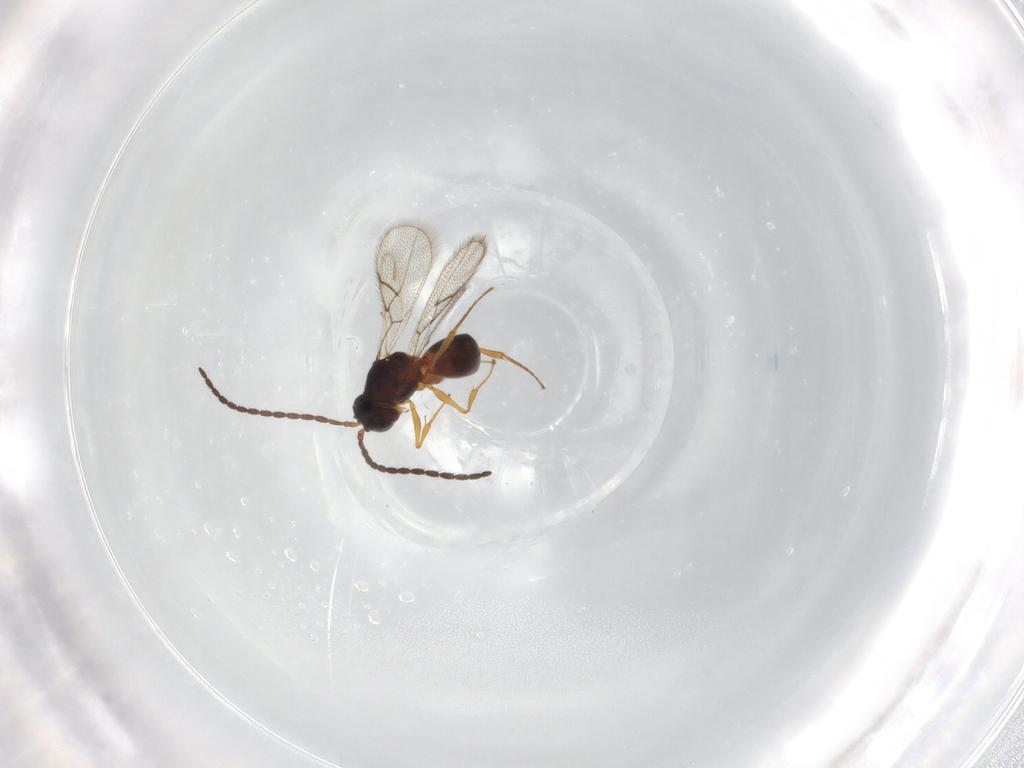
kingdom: Animalia
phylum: Arthropoda
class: Insecta
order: Hymenoptera
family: Figitidae
